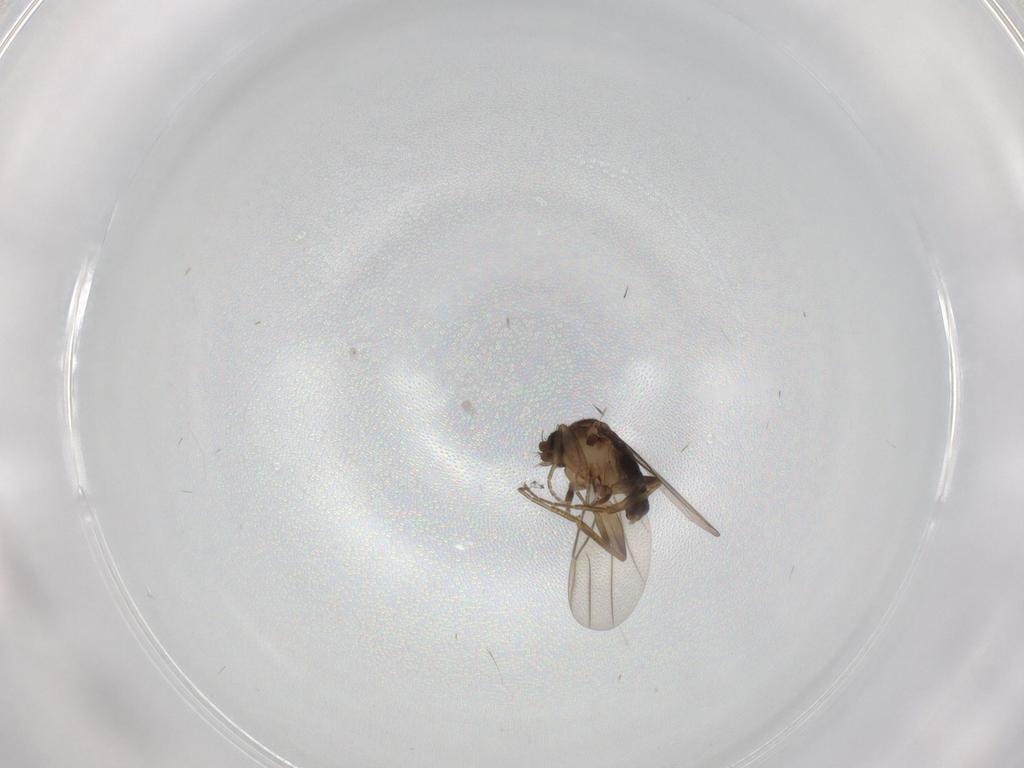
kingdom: Animalia
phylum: Arthropoda
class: Insecta
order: Diptera
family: Phoridae
